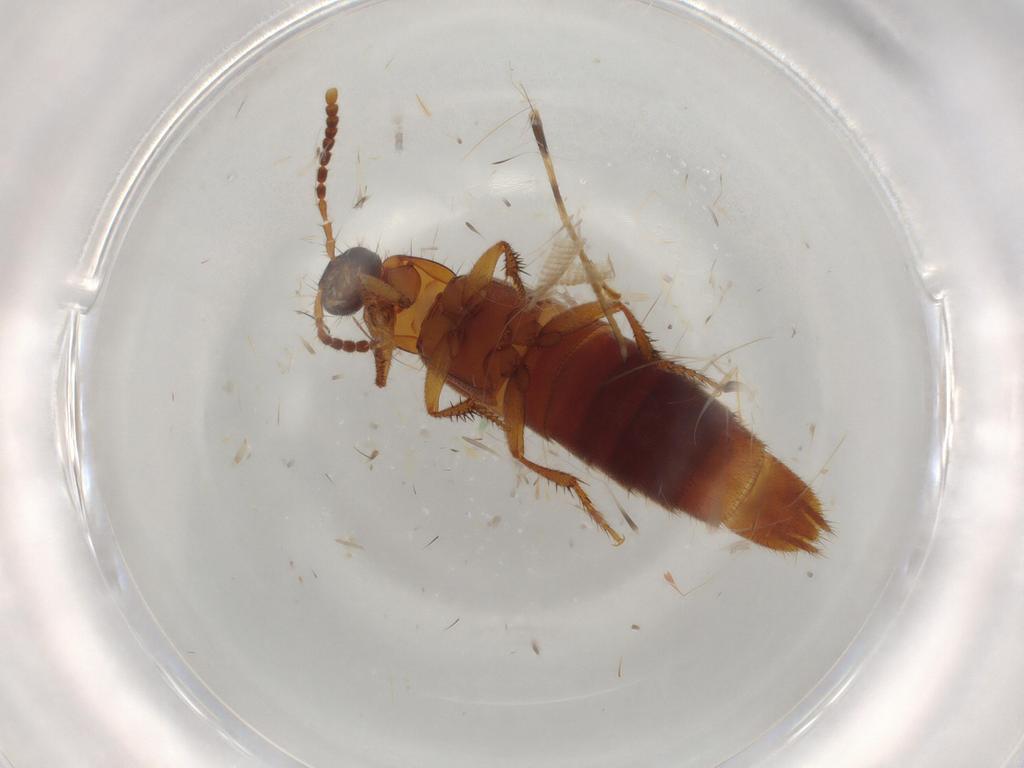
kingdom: Animalia
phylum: Arthropoda
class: Insecta
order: Coleoptera
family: Staphylinidae
